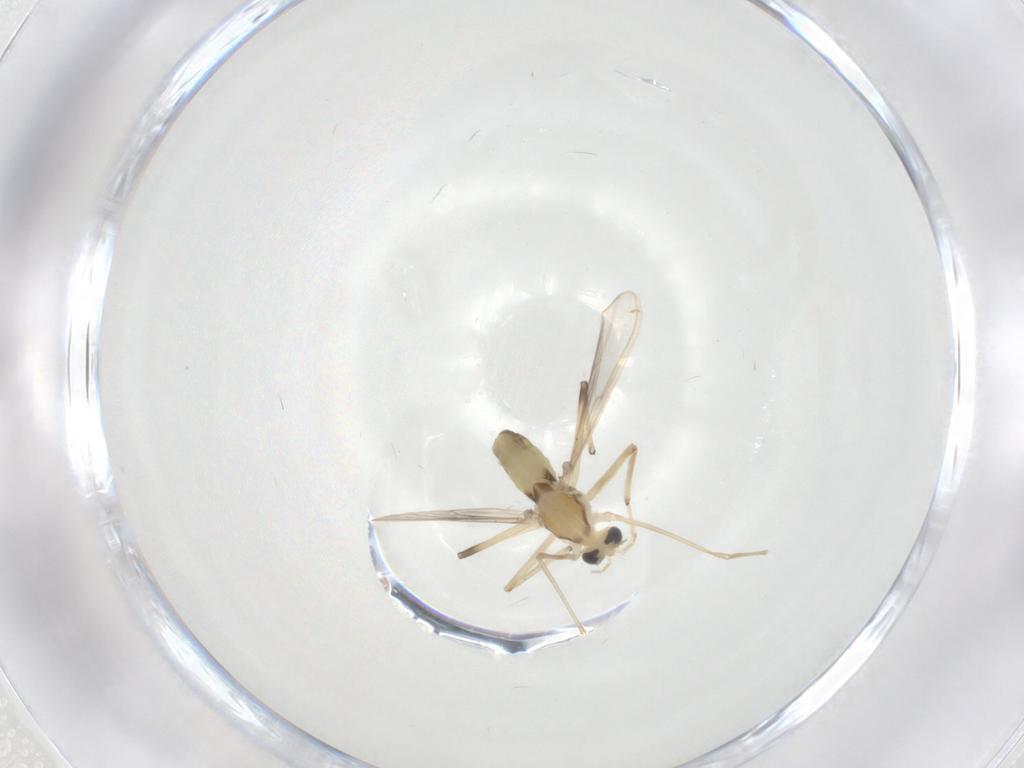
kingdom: Animalia
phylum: Arthropoda
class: Insecta
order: Diptera
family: Chironomidae
